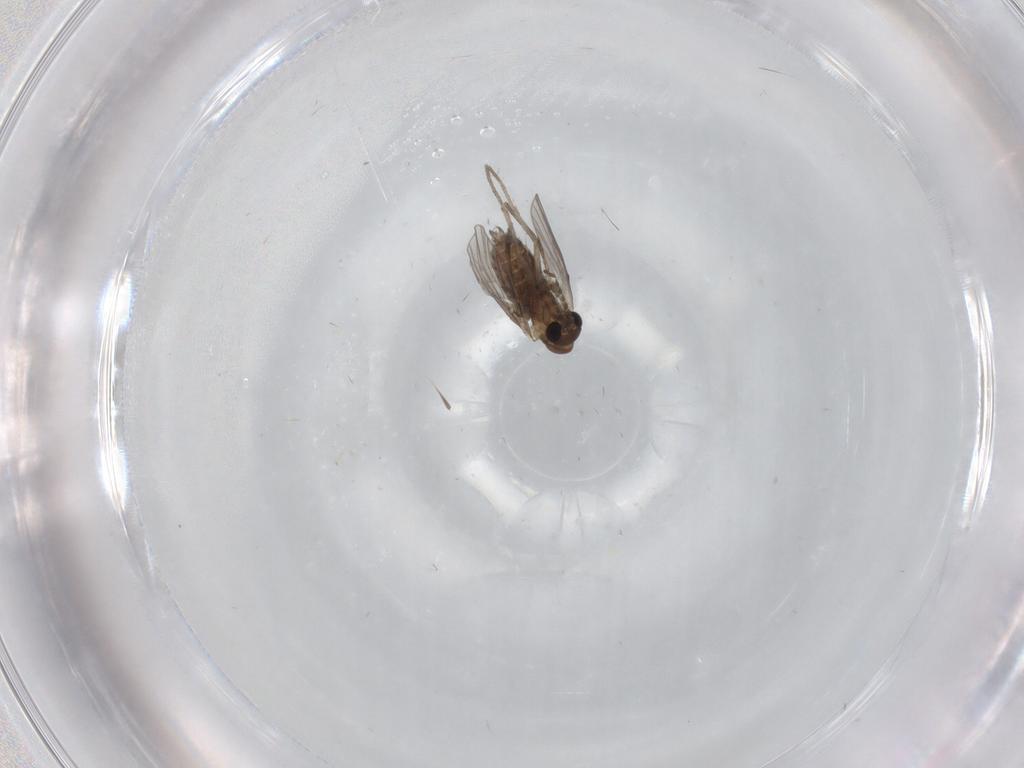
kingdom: Animalia
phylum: Arthropoda
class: Insecta
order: Diptera
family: Cecidomyiidae
